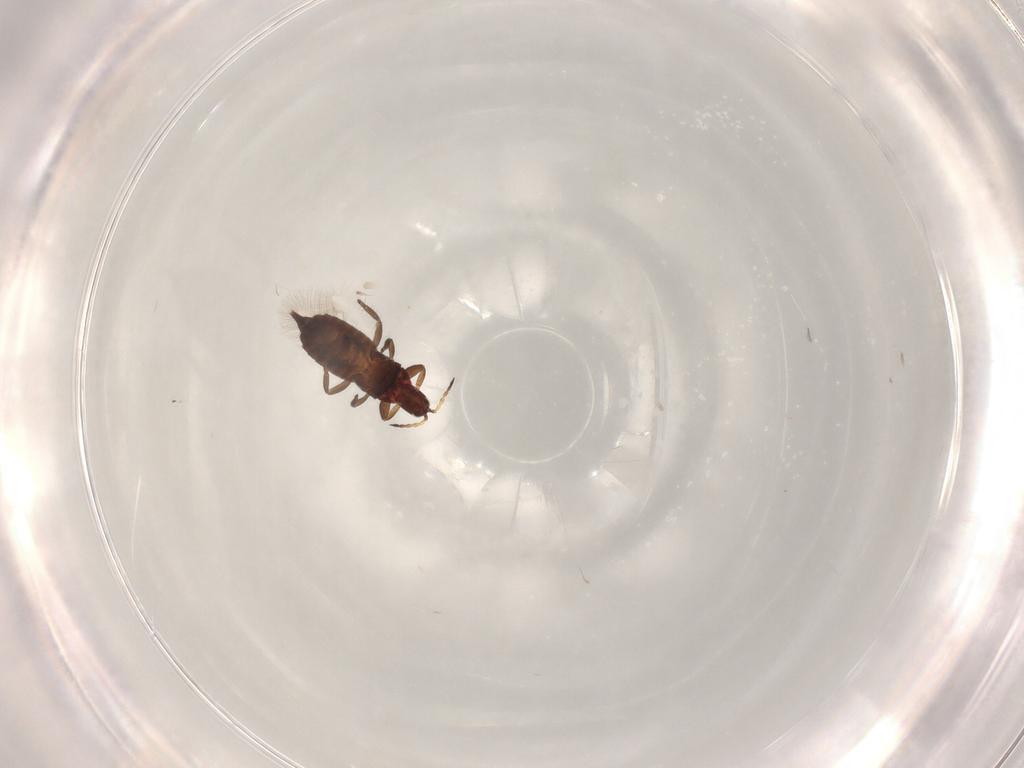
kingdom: Animalia
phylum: Arthropoda
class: Insecta
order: Thysanoptera
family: Phlaeothripidae
